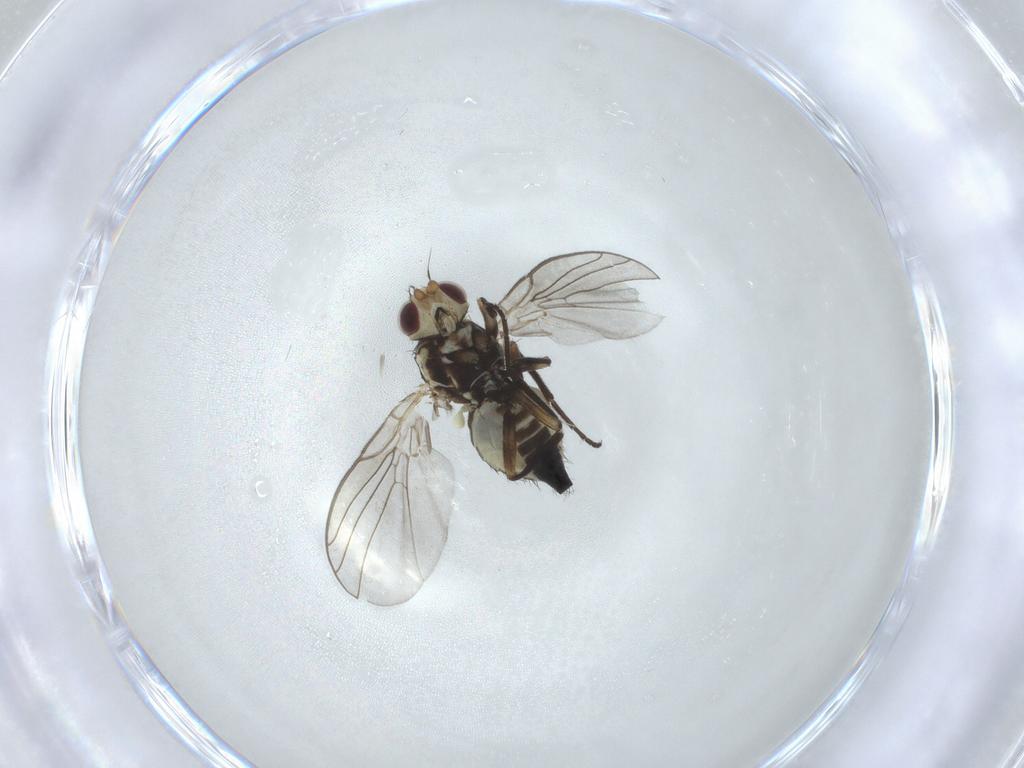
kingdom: Animalia
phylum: Arthropoda
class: Insecta
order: Diptera
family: Agromyzidae
